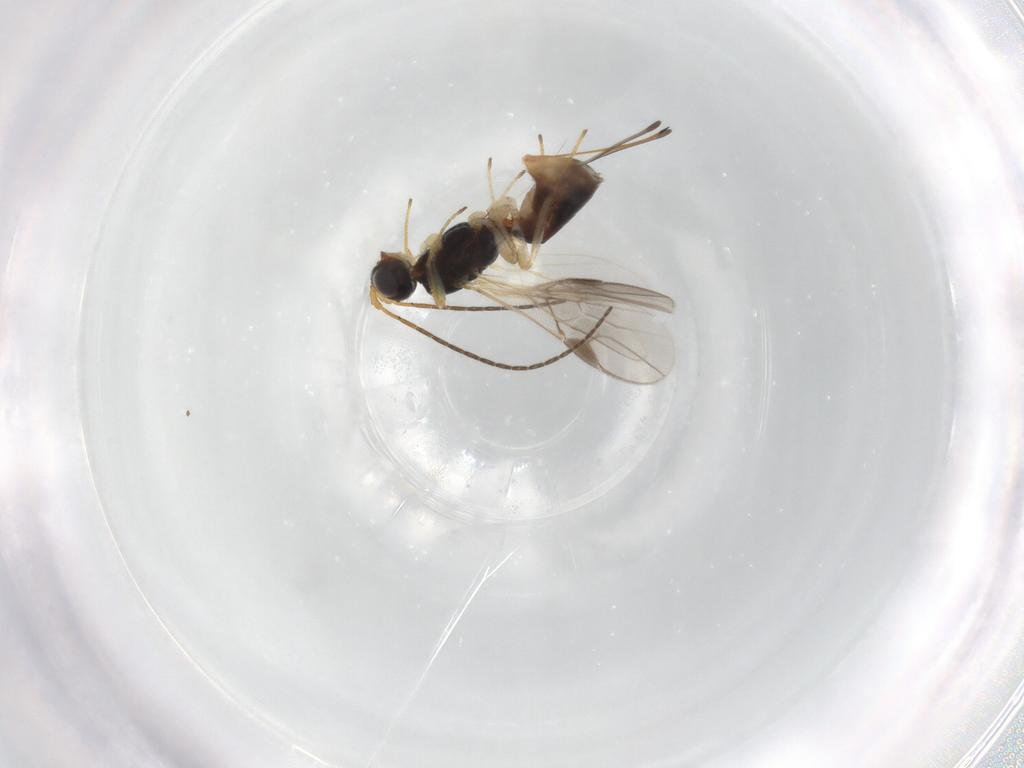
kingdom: Animalia
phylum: Arthropoda
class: Insecta
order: Hymenoptera
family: Braconidae
